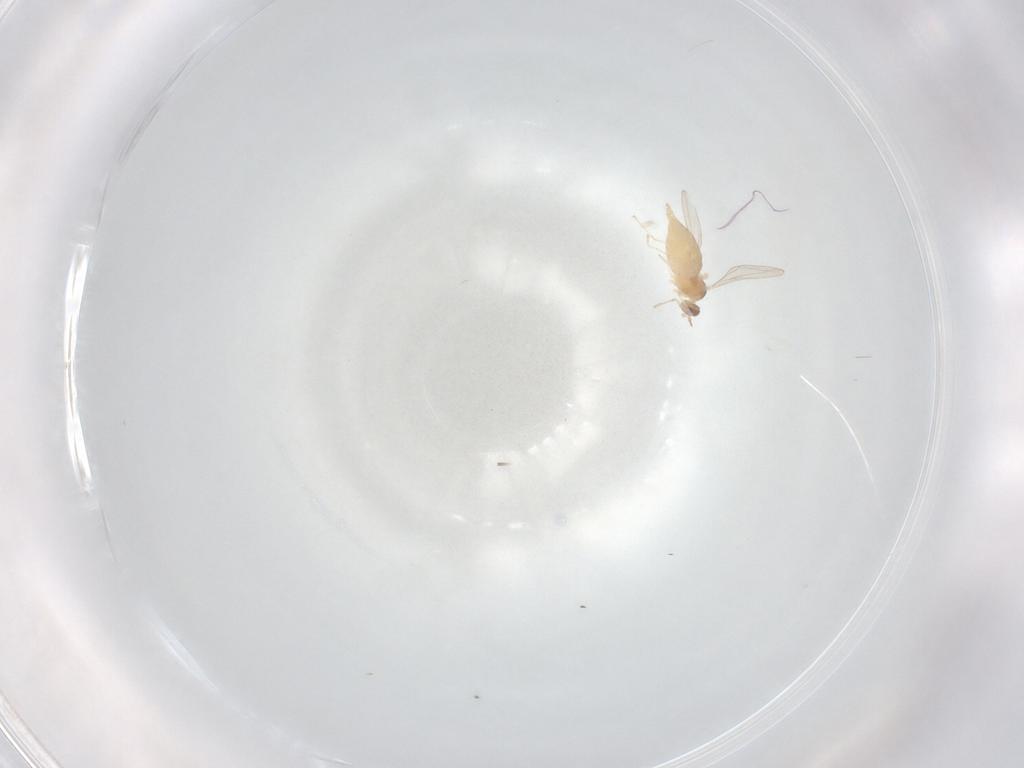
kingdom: Animalia
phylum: Arthropoda
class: Insecta
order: Diptera
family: Cecidomyiidae
